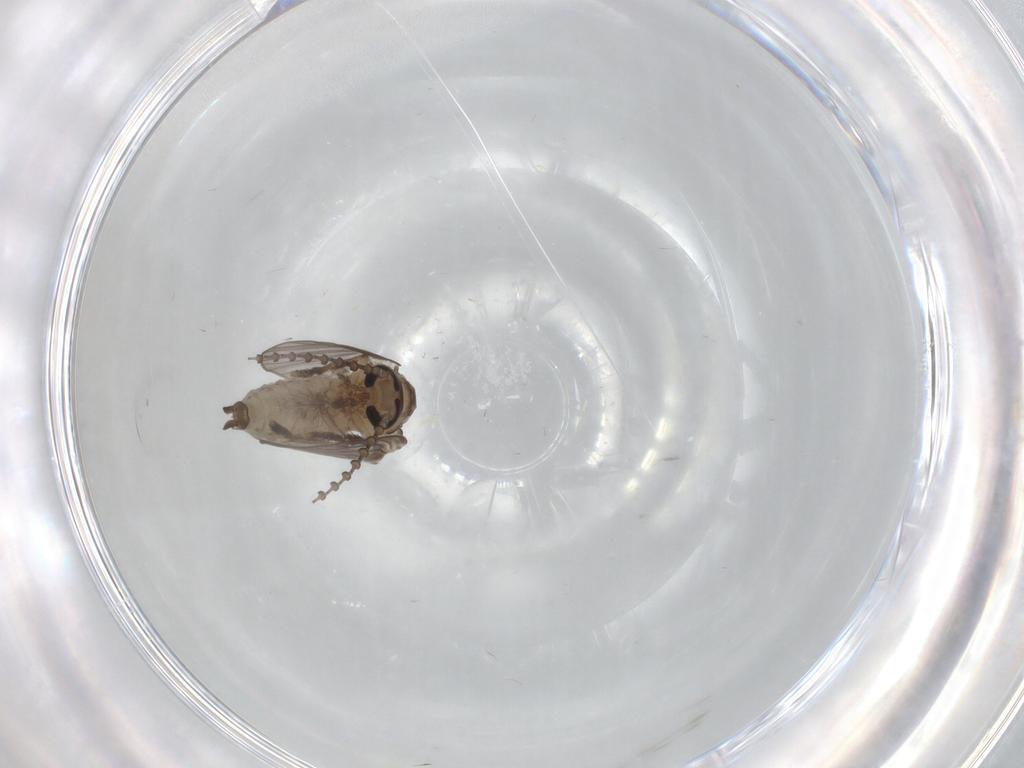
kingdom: Animalia
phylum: Arthropoda
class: Insecta
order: Diptera
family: Psychodidae
